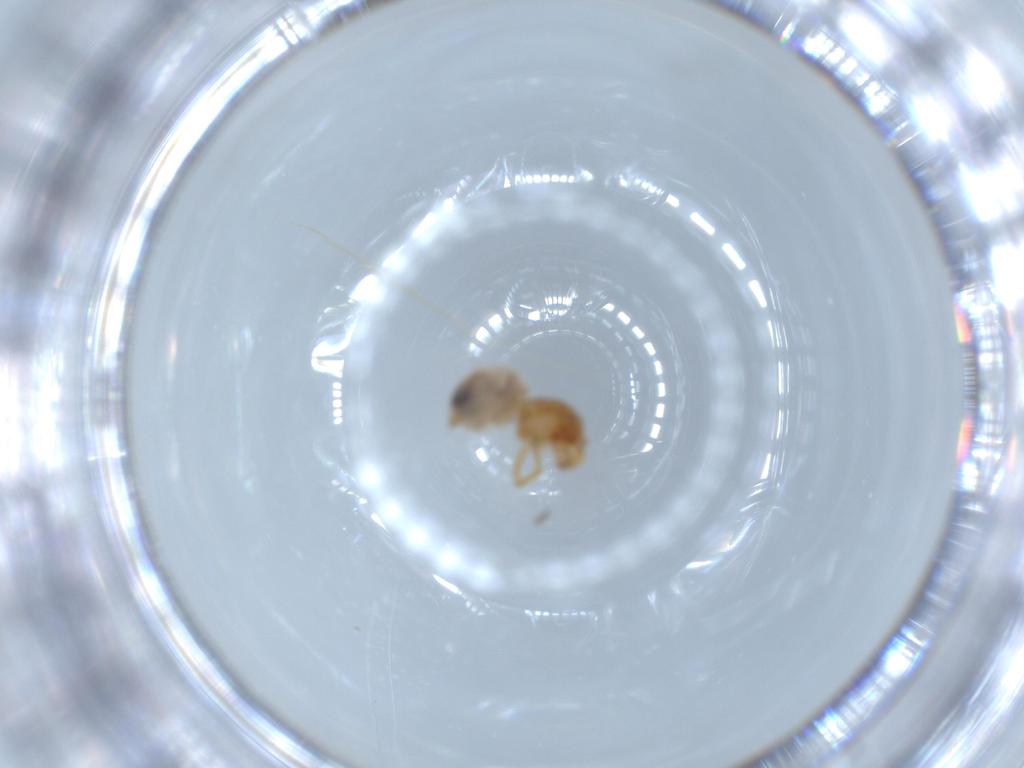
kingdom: Animalia
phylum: Arthropoda
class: Arachnida
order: Araneae
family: Oonopidae
